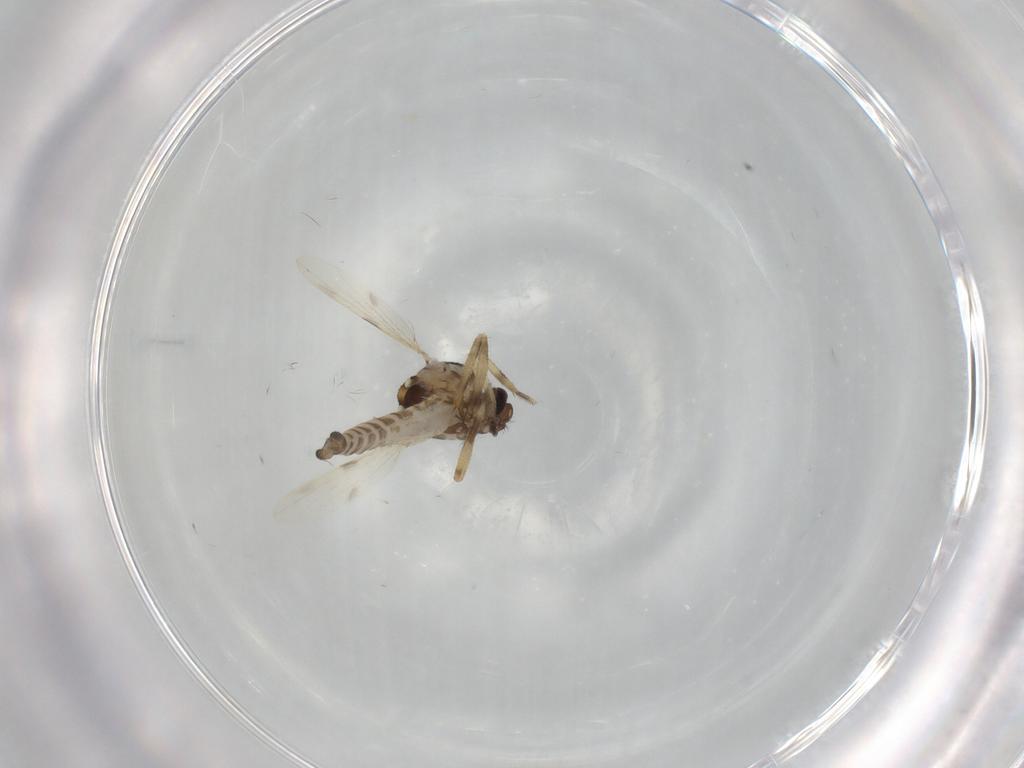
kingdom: Animalia
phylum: Arthropoda
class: Insecta
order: Diptera
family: Ceratopogonidae
